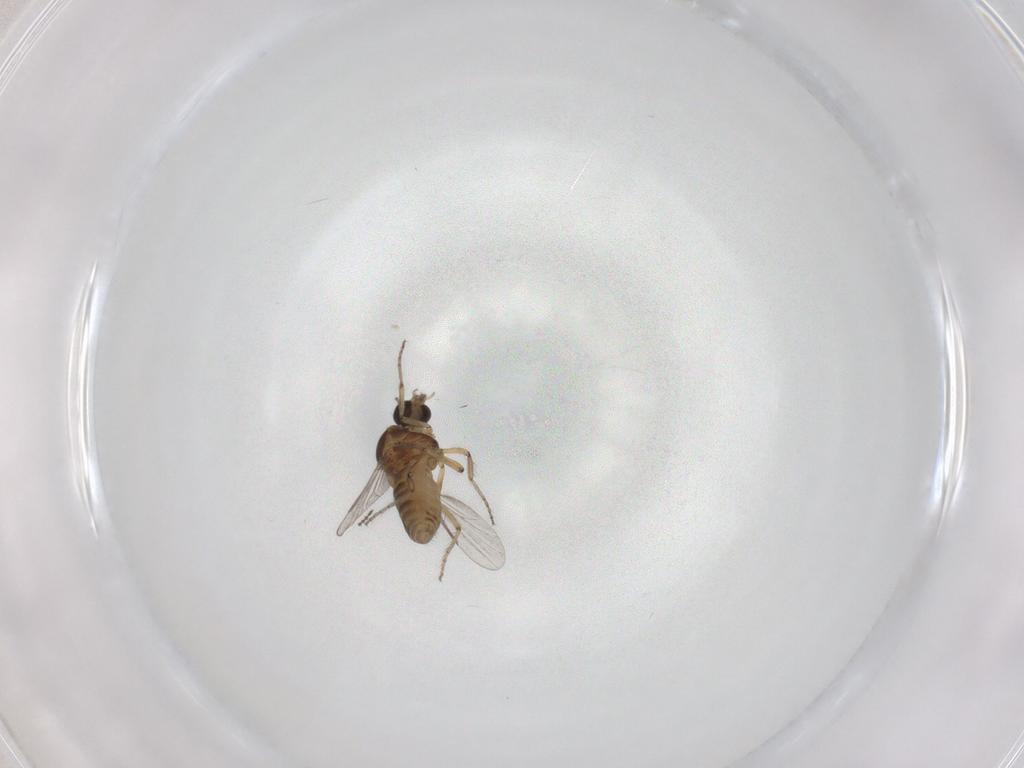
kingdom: Animalia
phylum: Arthropoda
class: Insecta
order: Diptera
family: Ceratopogonidae
